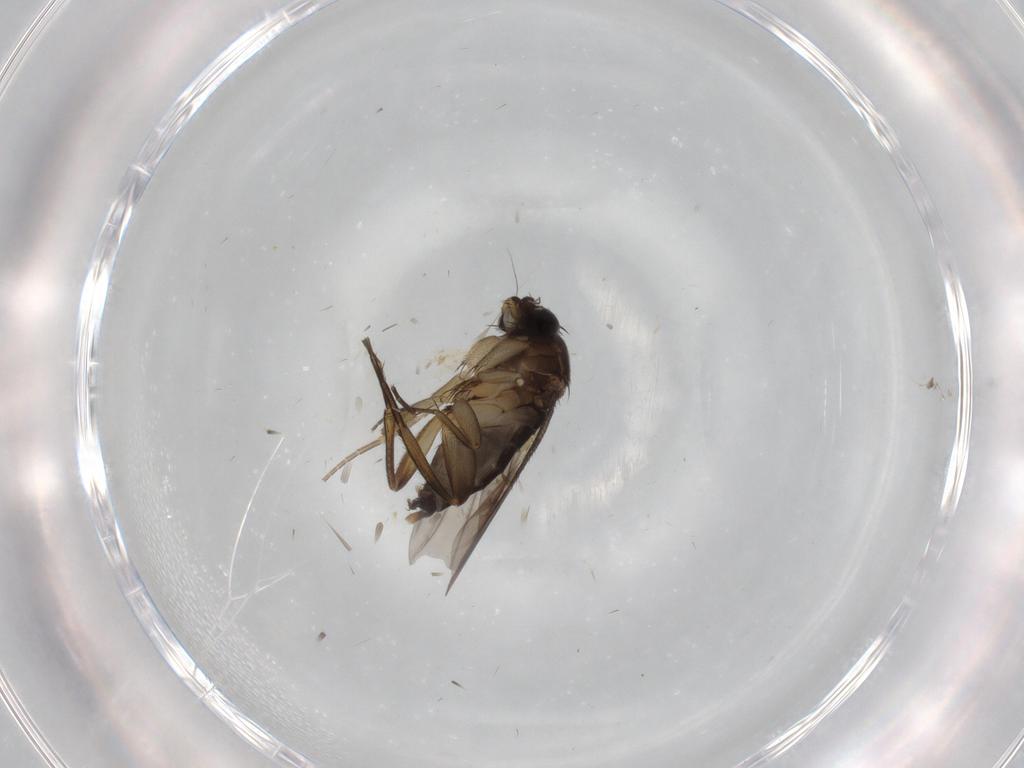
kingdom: Animalia
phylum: Arthropoda
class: Insecta
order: Diptera
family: Phoridae
